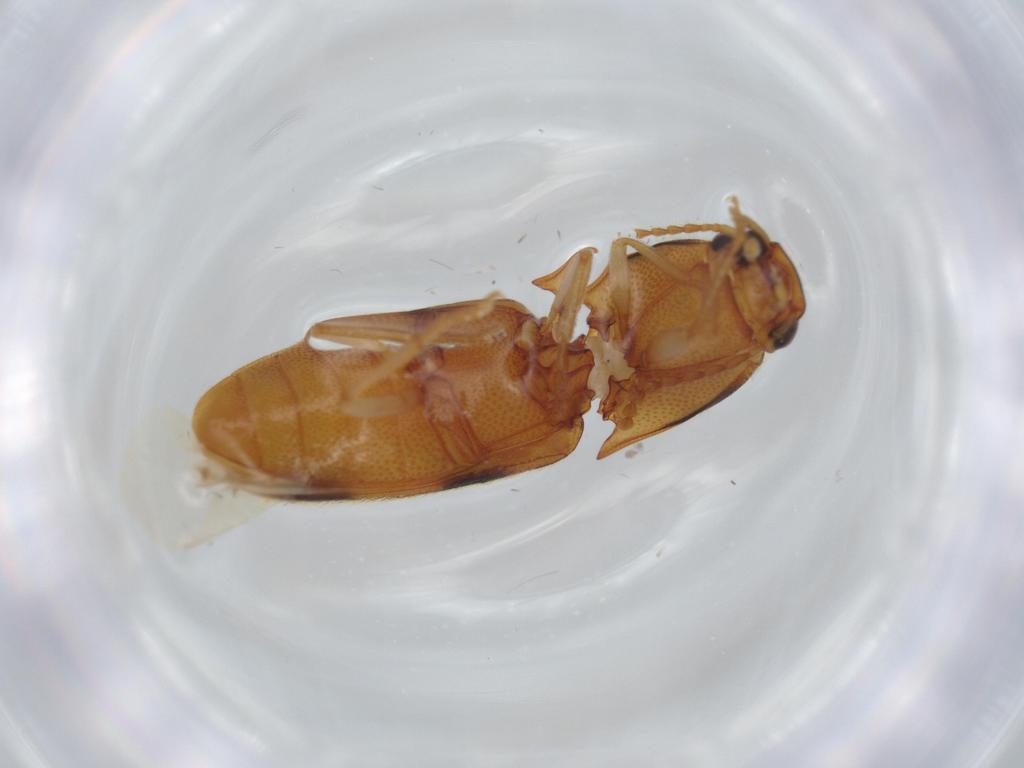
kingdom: Animalia
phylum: Arthropoda
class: Insecta
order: Coleoptera
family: Elateridae
